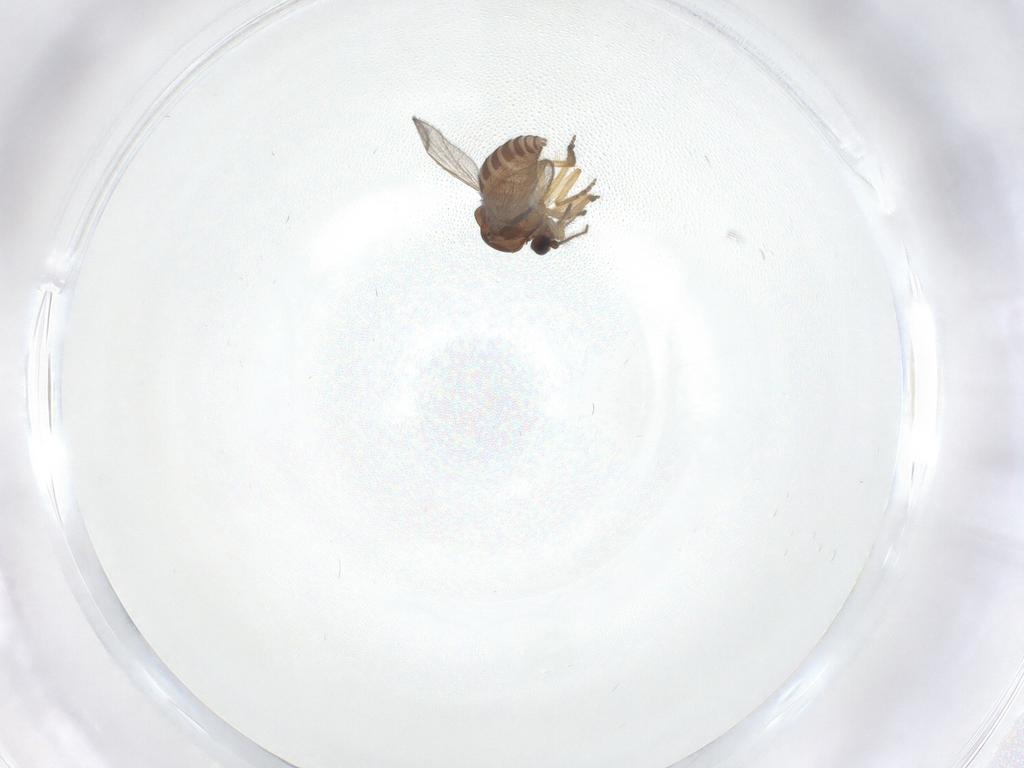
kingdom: Animalia
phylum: Arthropoda
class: Insecta
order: Diptera
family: Ceratopogonidae
